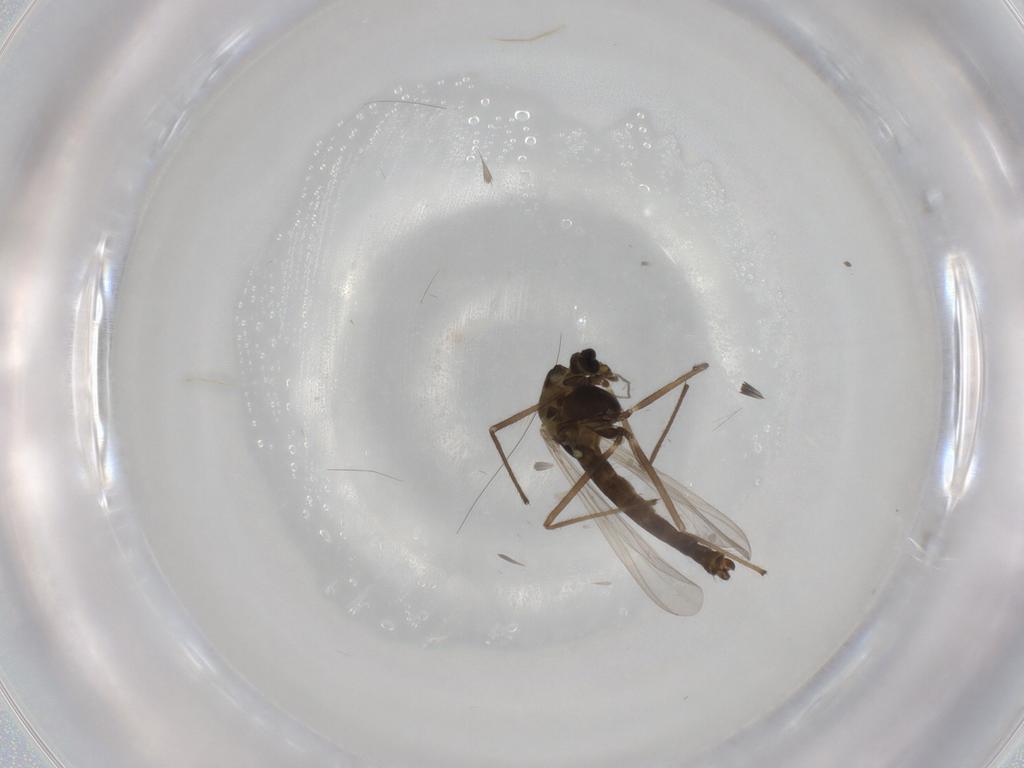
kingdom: Animalia
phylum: Arthropoda
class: Insecta
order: Diptera
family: Chironomidae
